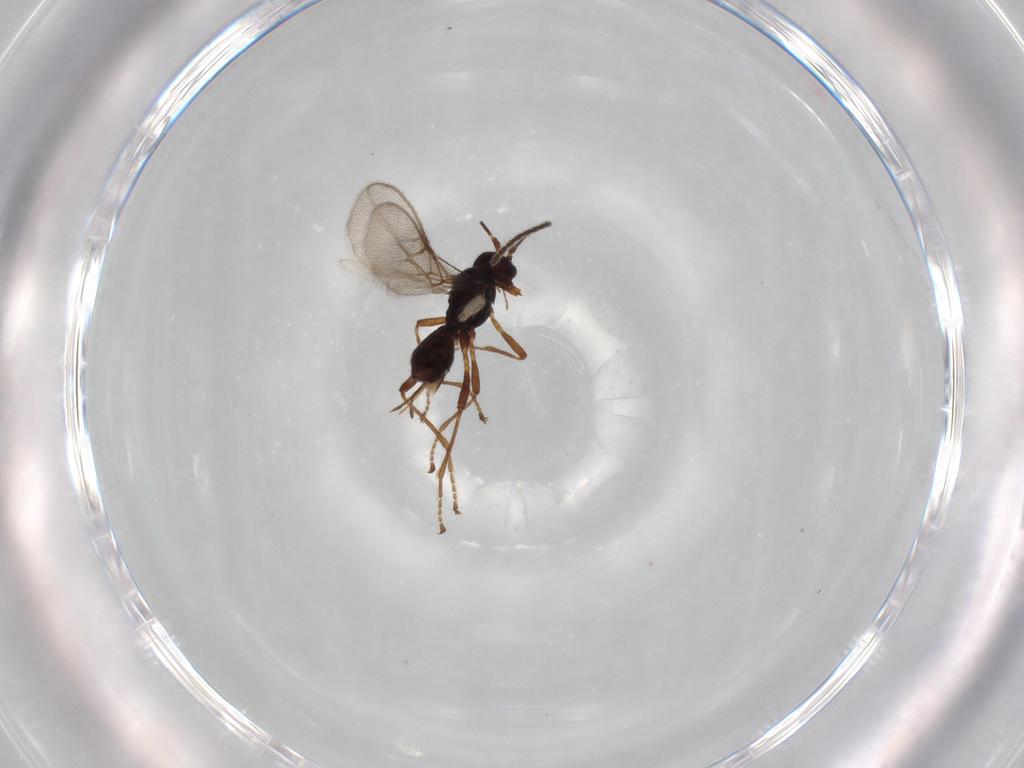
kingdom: Animalia
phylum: Arthropoda
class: Insecta
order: Hymenoptera
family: Braconidae
